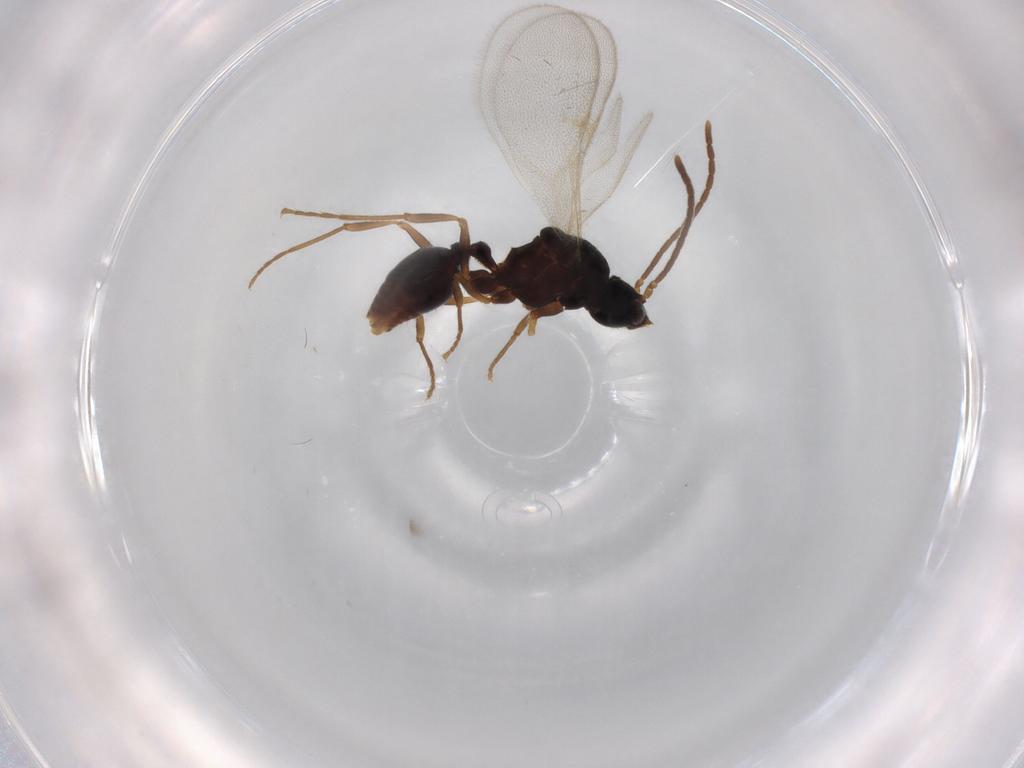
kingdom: Animalia
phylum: Arthropoda
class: Insecta
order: Hymenoptera
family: Formicidae
